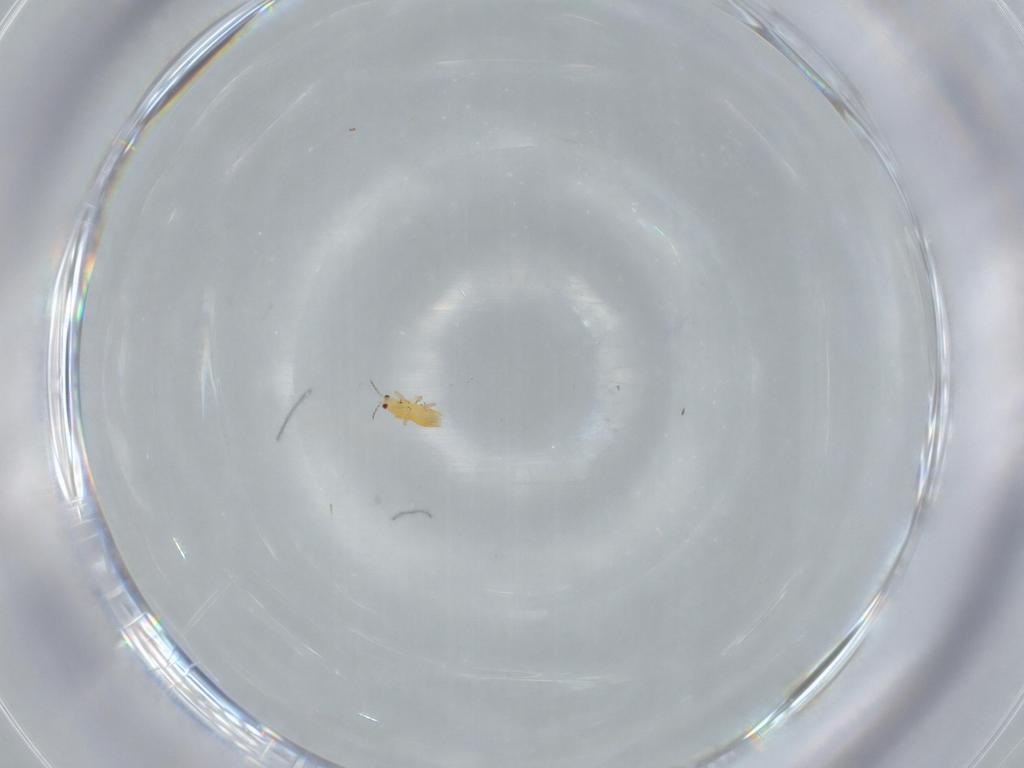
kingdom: Animalia
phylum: Arthropoda
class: Insecta
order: Thysanoptera
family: Thripidae
